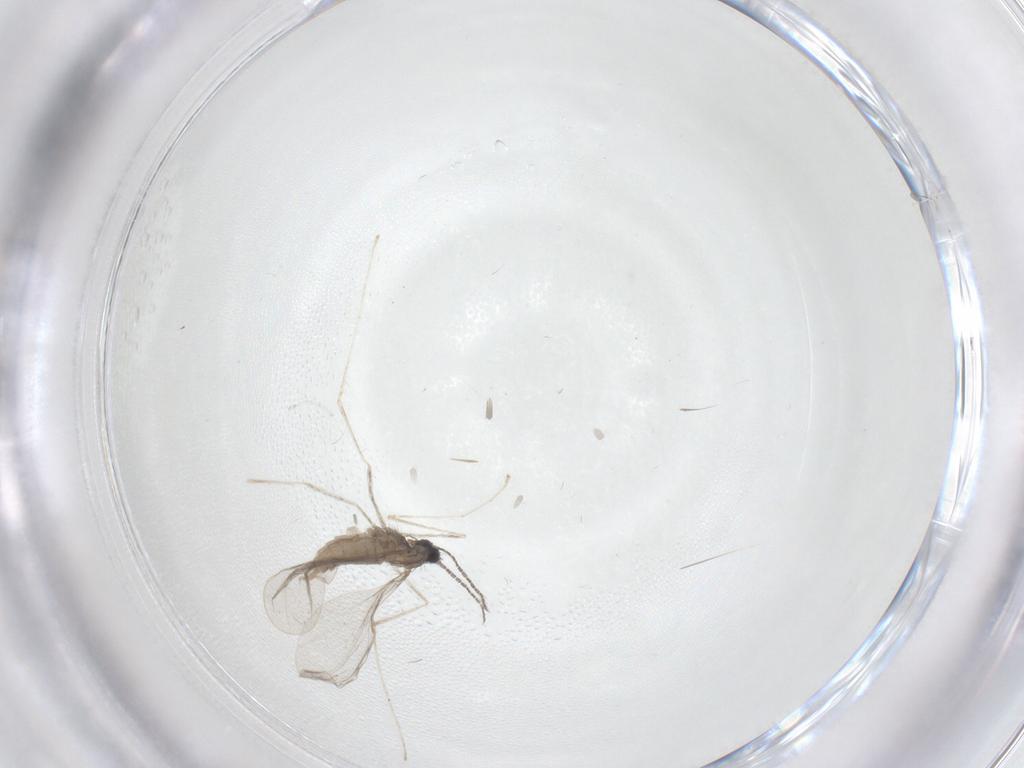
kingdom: Animalia
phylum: Arthropoda
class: Insecta
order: Diptera
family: Cecidomyiidae
